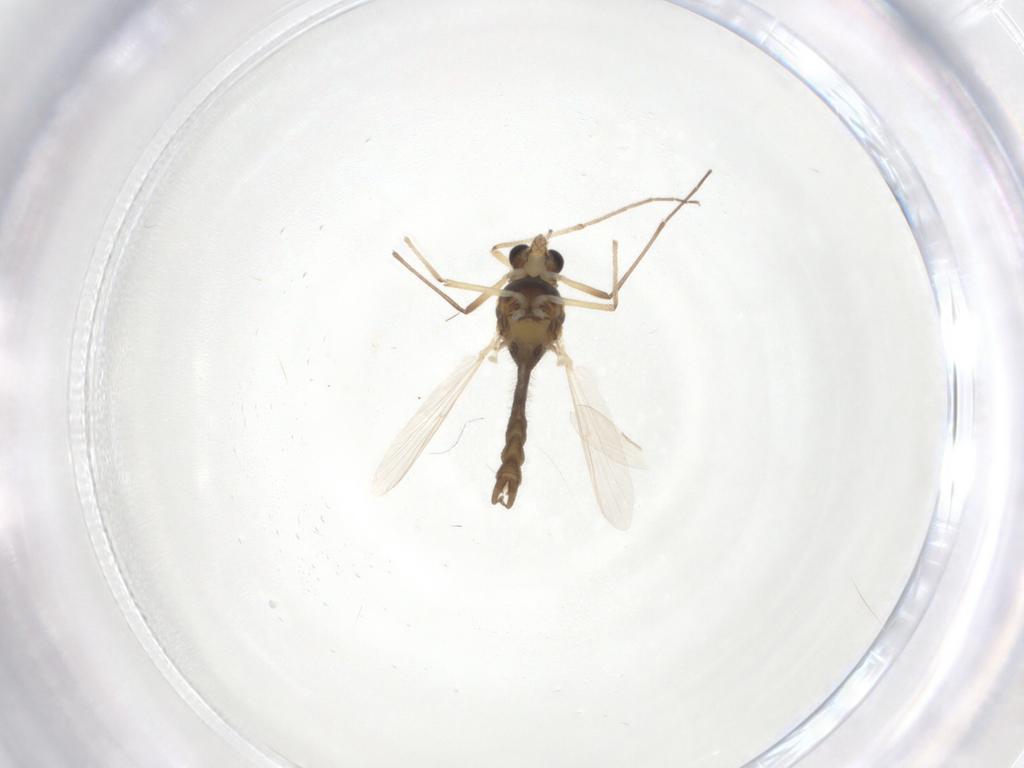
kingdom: Animalia
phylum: Arthropoda
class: Insecta
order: Diptera
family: Chironomidae
